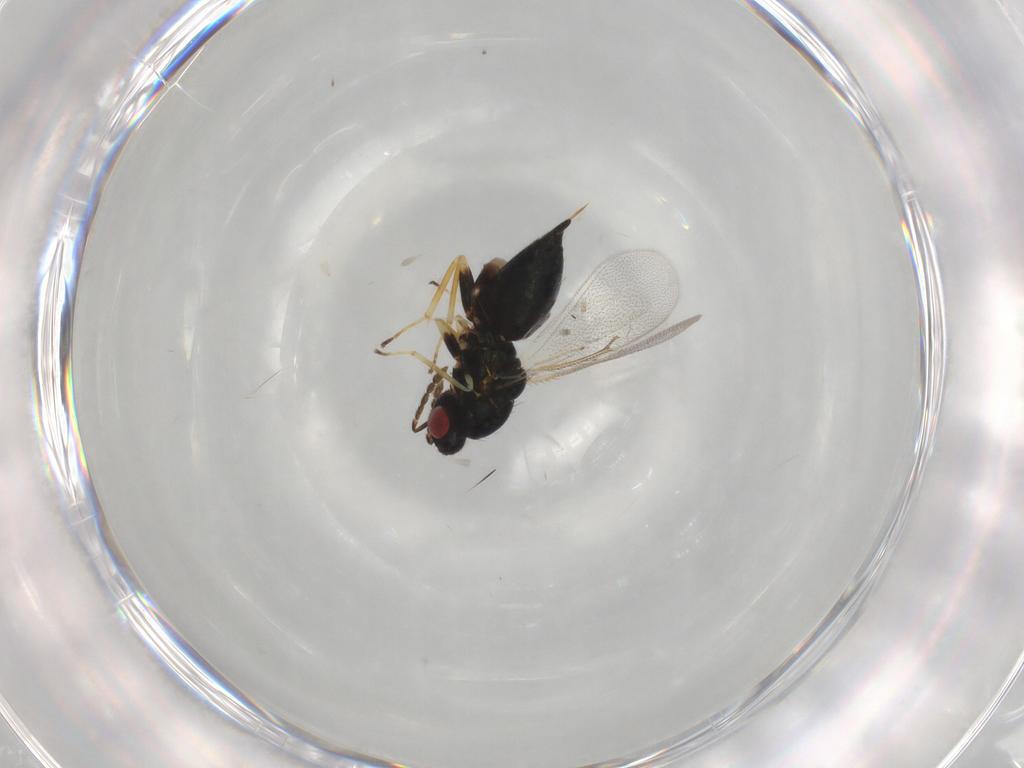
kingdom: Animalia
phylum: Arthropoda
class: Insecta
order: Hymenoptera
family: Eulophidae
